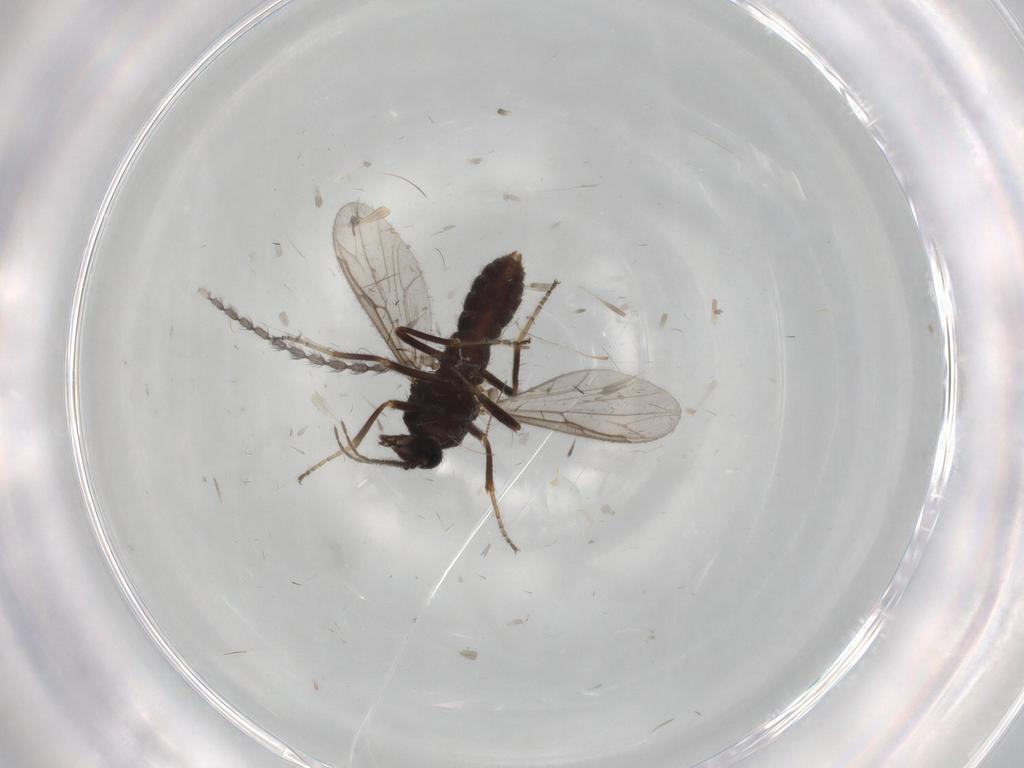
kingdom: Animalia
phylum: Arthropoda
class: Insecta
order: Diptera
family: Ceratopogonidae
